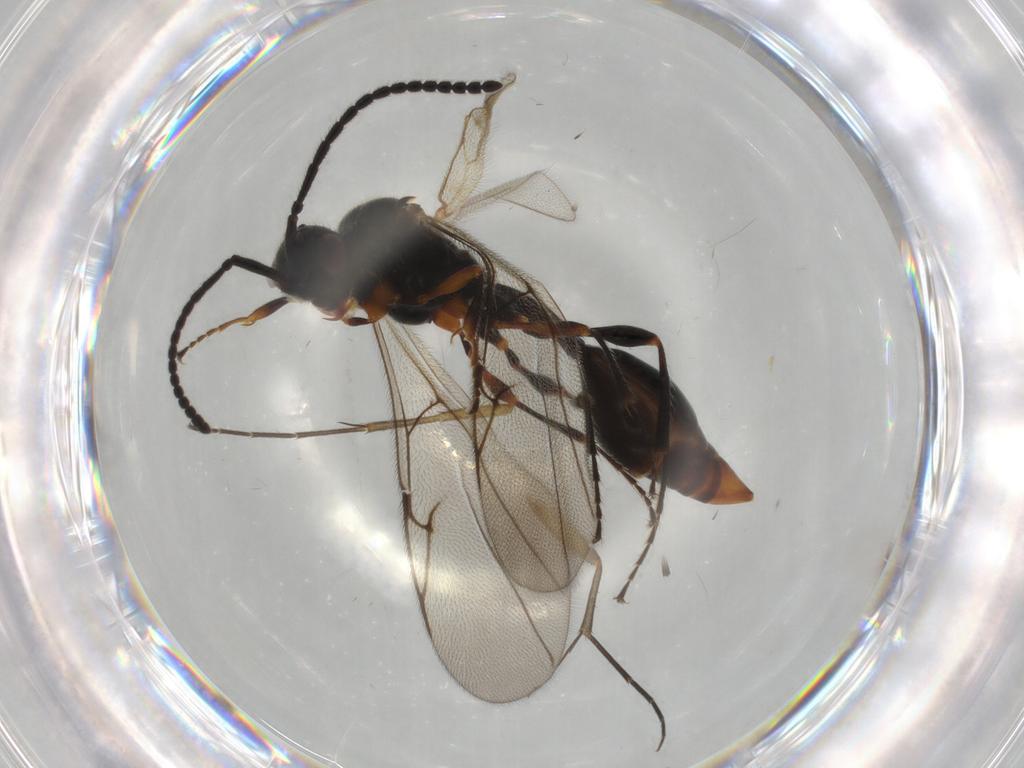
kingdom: Animalia
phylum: Arthropoda
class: Insecta
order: Hymenoptera
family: Diapriidae
